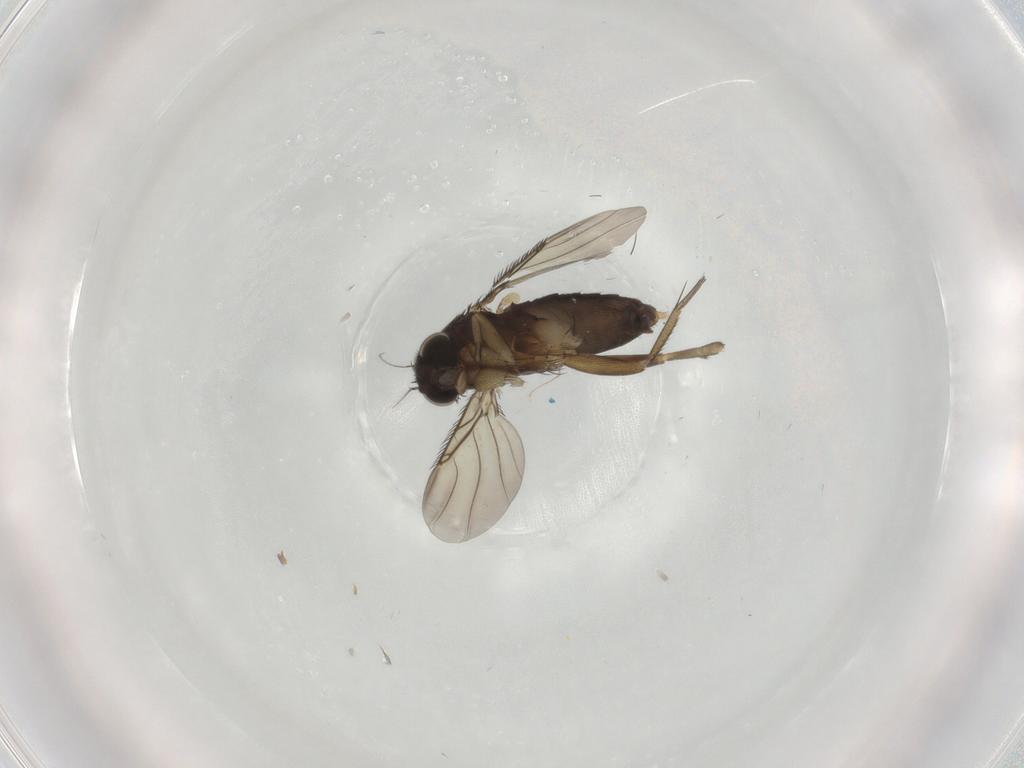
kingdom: Animalia
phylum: Arthropoda
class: Insecta
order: Diptera
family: Phoridae
